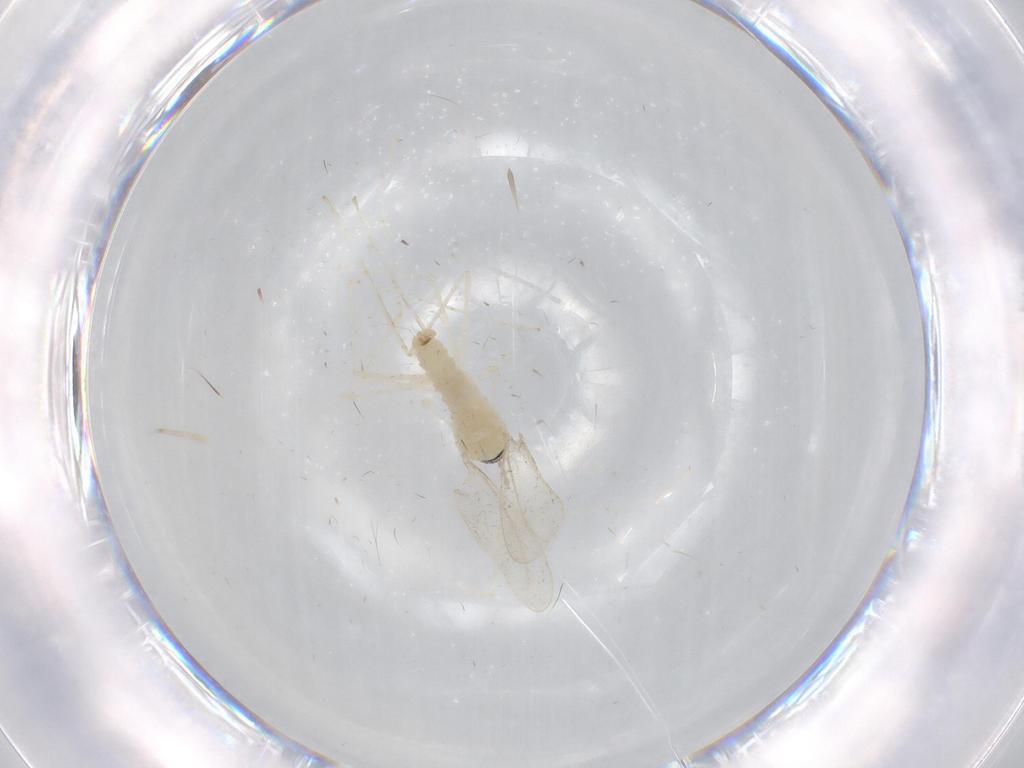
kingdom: Animalia
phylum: Arthropoda
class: Insecta
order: Diptera
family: Cecidomyiidae
